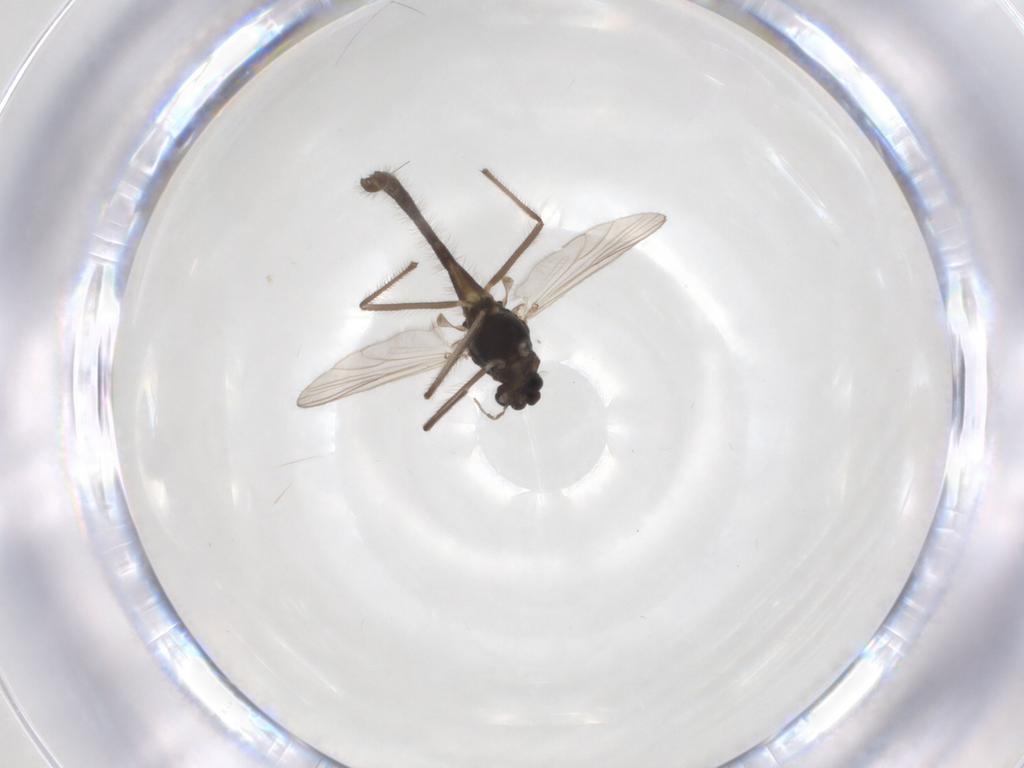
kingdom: Animalia
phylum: Arthropoda
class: Insecta
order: Diptera
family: Chironomidae
